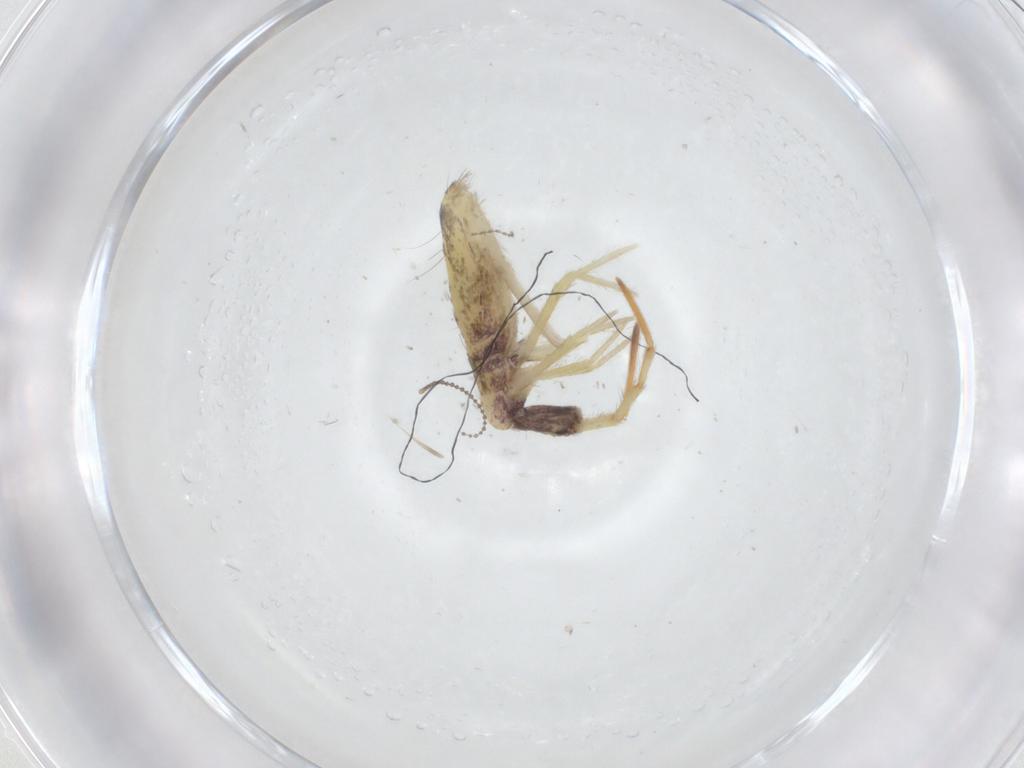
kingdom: Animalia
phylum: Arthropoda
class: Collembola
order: Entomobryomorpha
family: Entomobryidae
